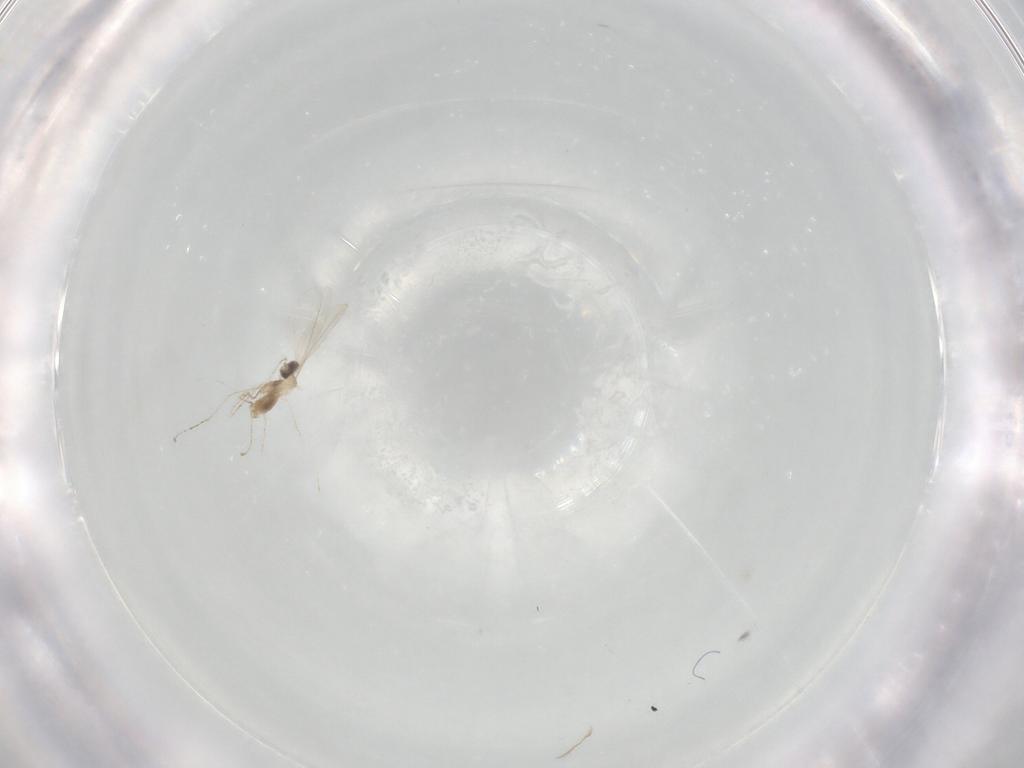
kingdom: Animalia
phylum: Arthropoda
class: Insecta
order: Diptera
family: Cecidomyiidae
